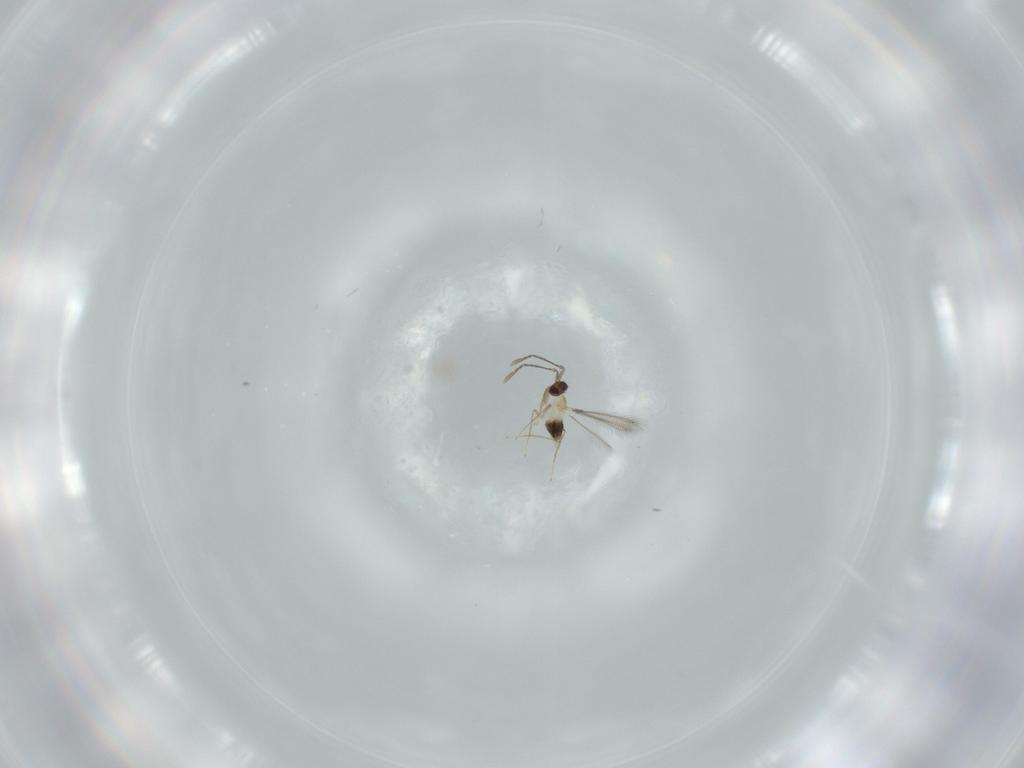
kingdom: Animalia
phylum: Arthropoda
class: Insecta
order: Hymenoptera
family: Mymaridae
